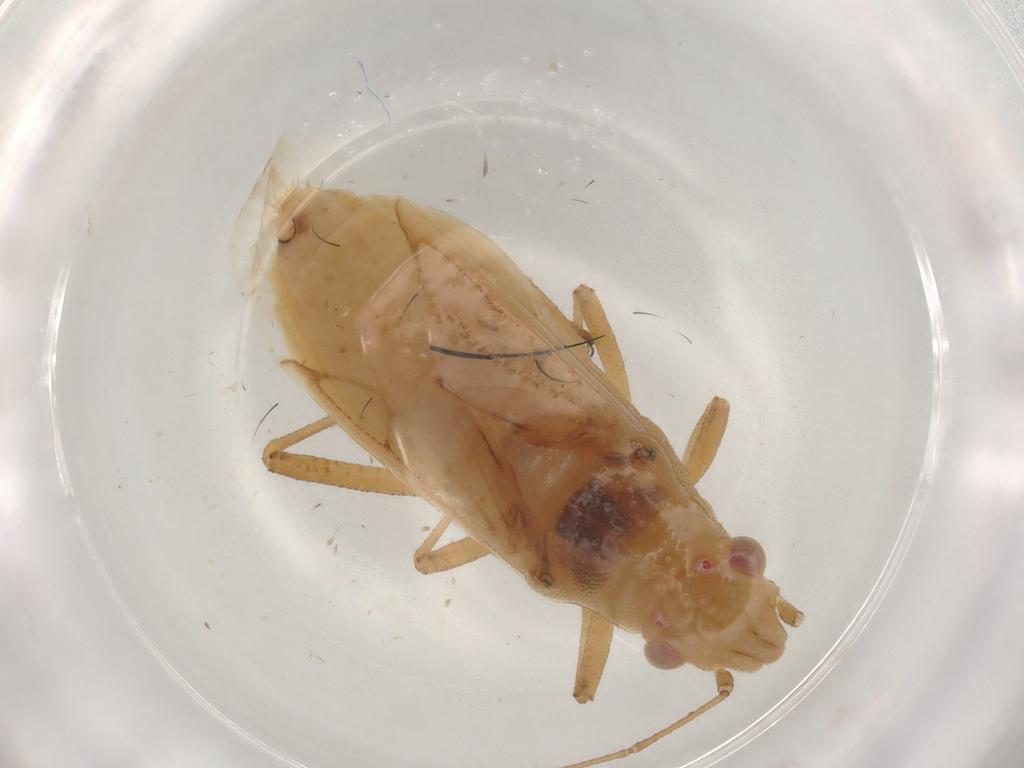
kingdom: Animalia
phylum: Arthropoda
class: Insecta
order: Hemiptera
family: Rhopalidae
